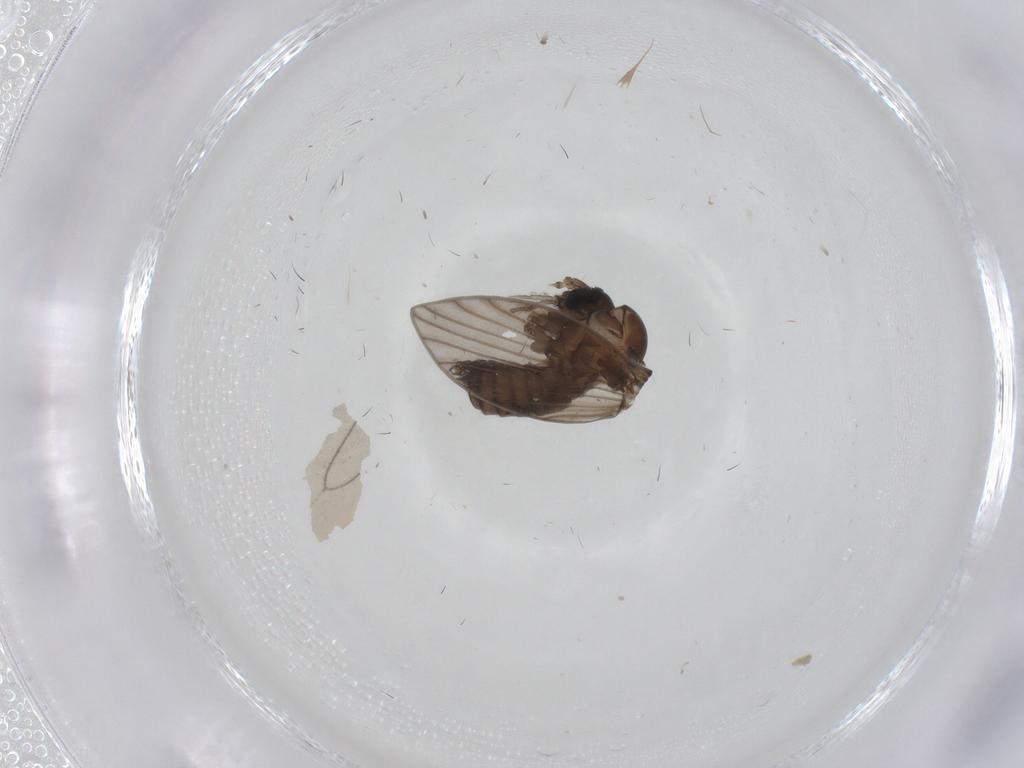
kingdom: Animalia
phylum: Arthropoda
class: Insecta
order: Diptera
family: Psychodidae
